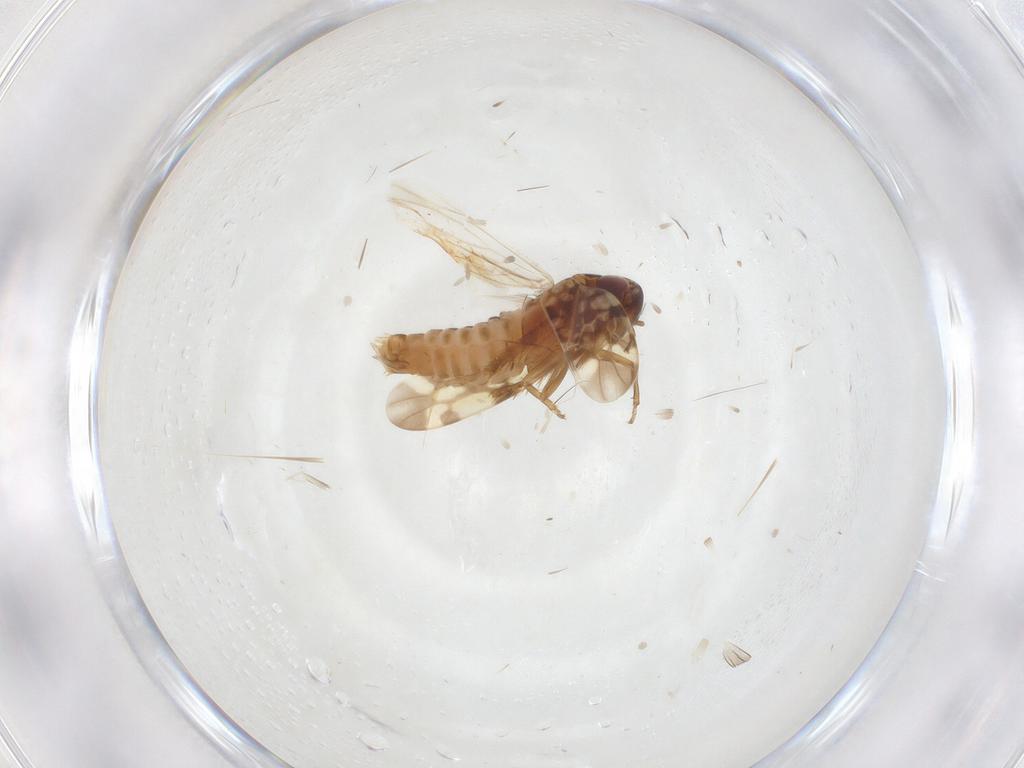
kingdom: Animalia
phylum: Arthropoda
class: Insecta
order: Hemiptera
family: Cicadellidae
